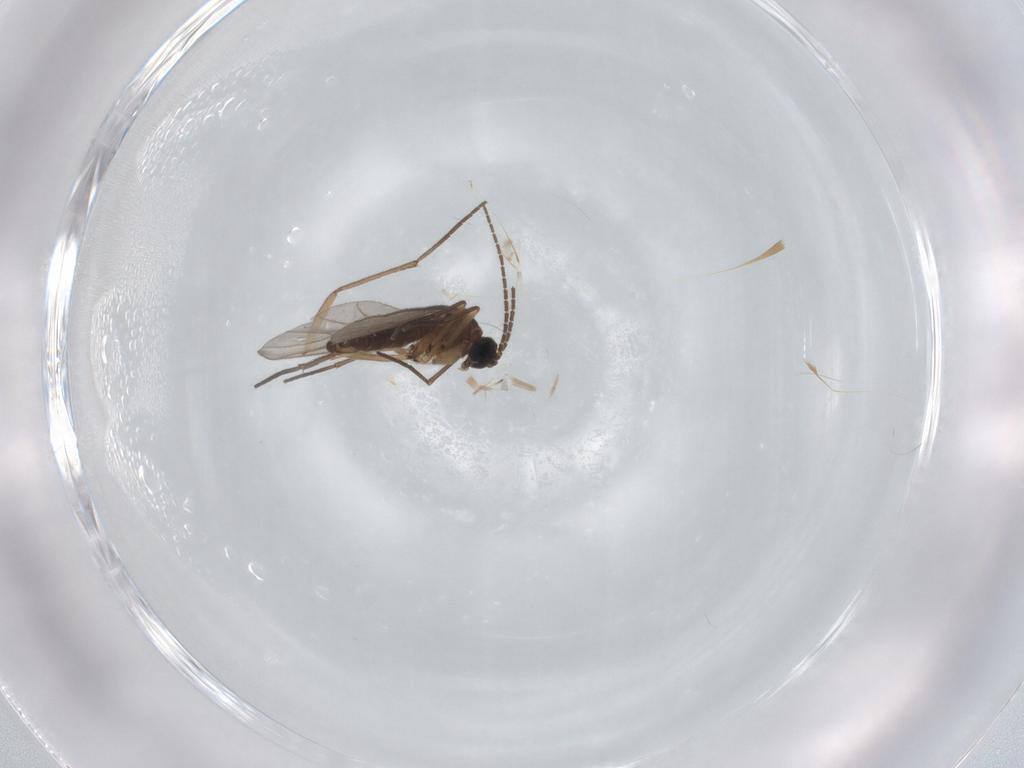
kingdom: Animalia
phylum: Arthropoda
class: Insecta
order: Diptera
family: Sciaridae
